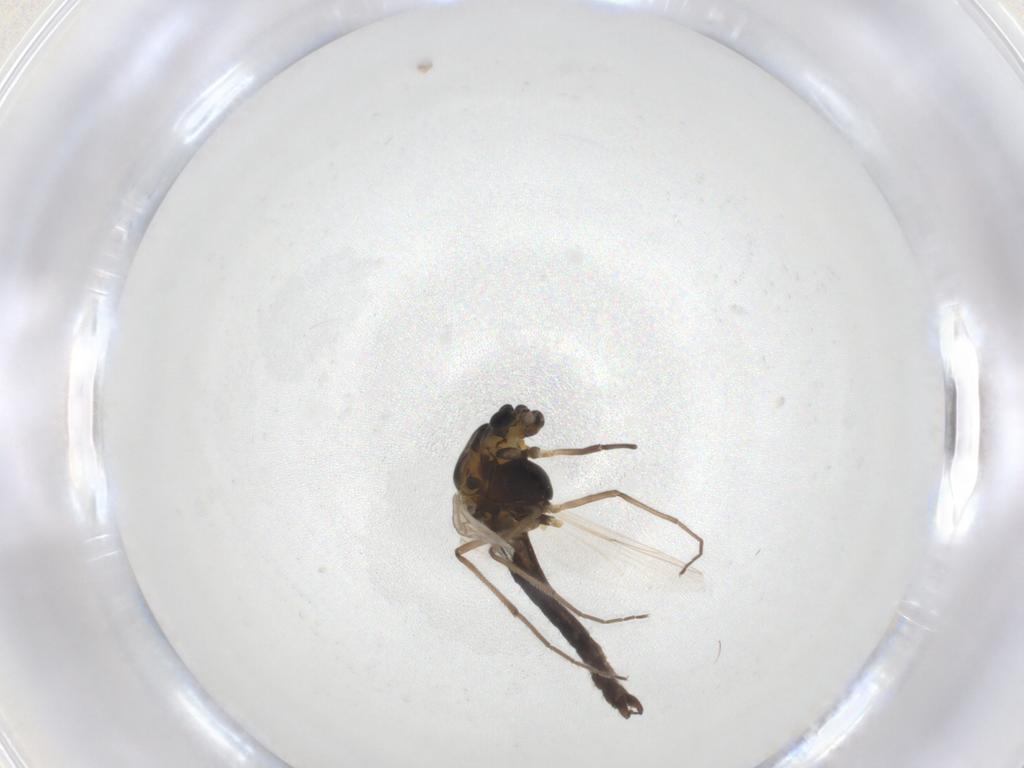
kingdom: Animalia
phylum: Arthropoda
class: Insecta
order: Diptera
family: Chironomidae
